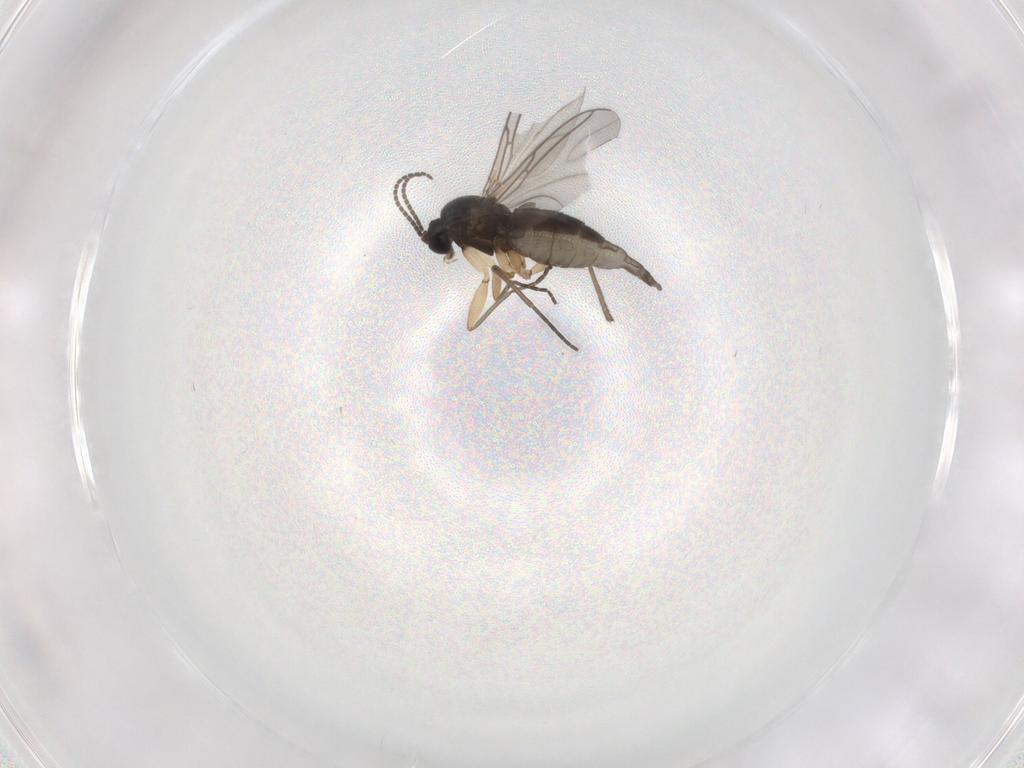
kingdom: Animalia
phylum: Arthropoda
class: Insecta
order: Diptera
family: Sciaridae
